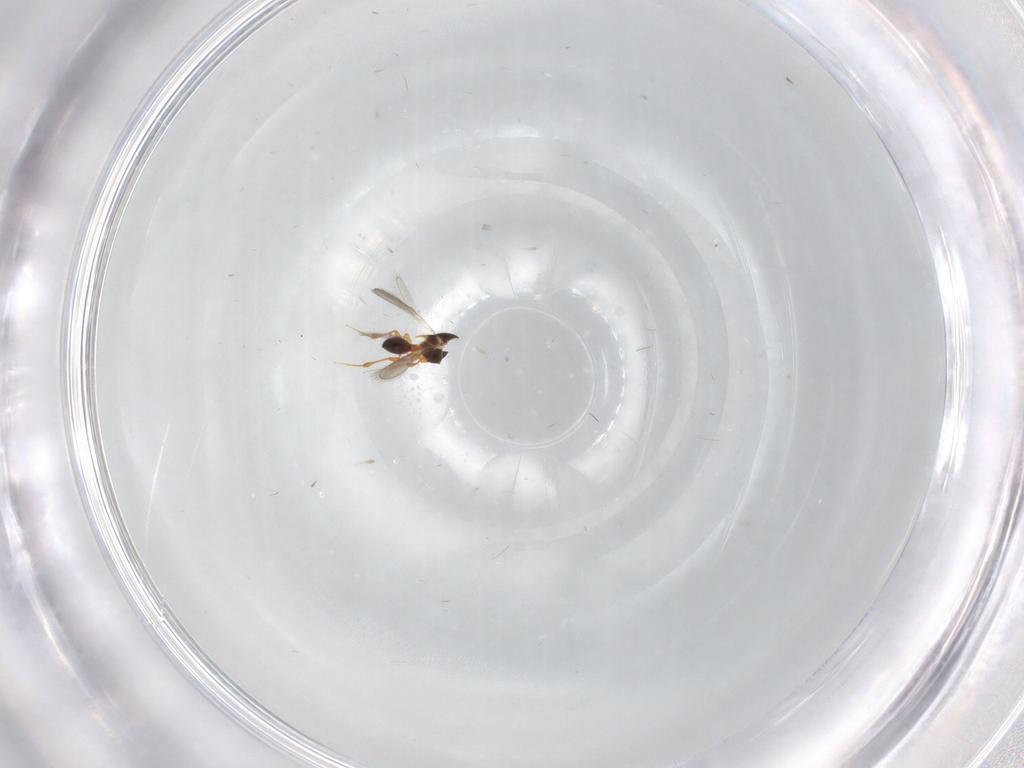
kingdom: Animalia
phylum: Arthropoda
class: Insecta
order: Hymenoptera
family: Platygastridae
